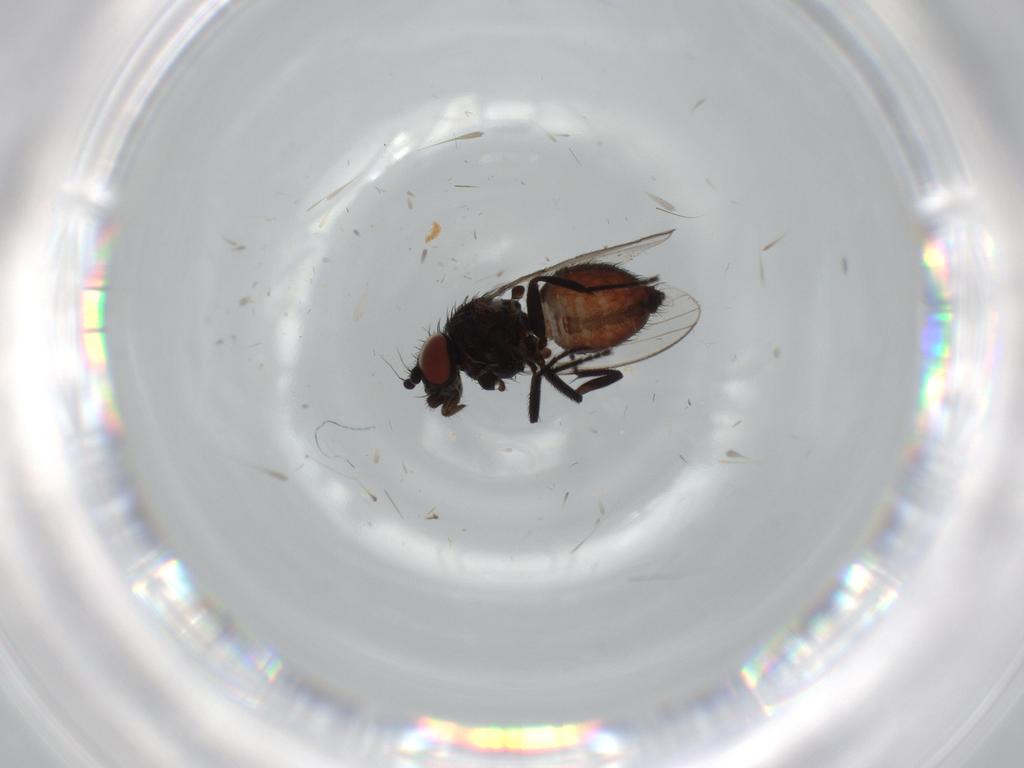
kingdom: Animalia
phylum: Arthropoda
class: Insecta
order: Diptera
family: Milichiidae
